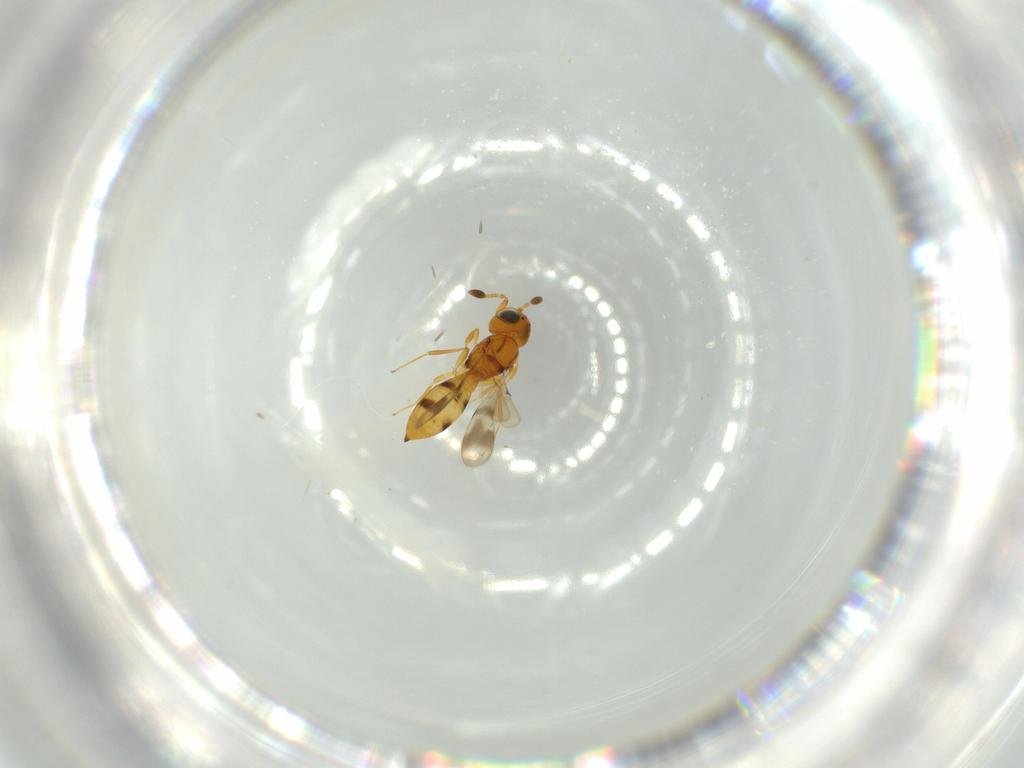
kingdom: Animalia
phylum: Arthropoda
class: Insecta
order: Hymenoptera
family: Scelionidae
